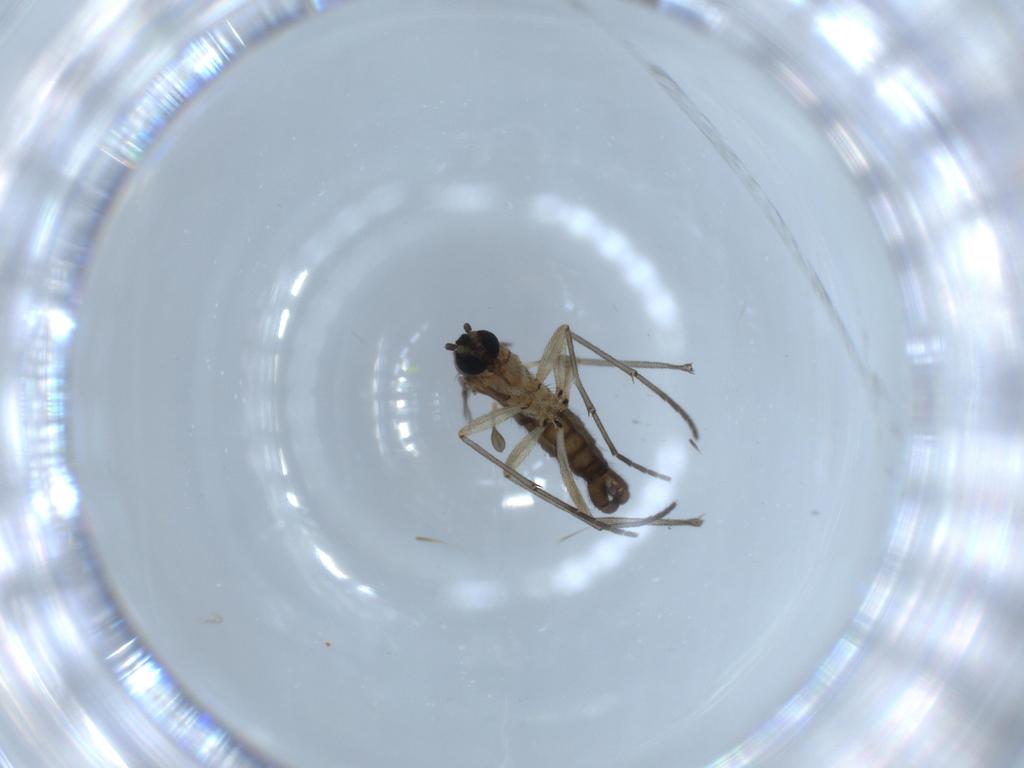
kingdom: Animalia
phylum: Arthropoda
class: Insecta
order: Diptera
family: Sciaridae
